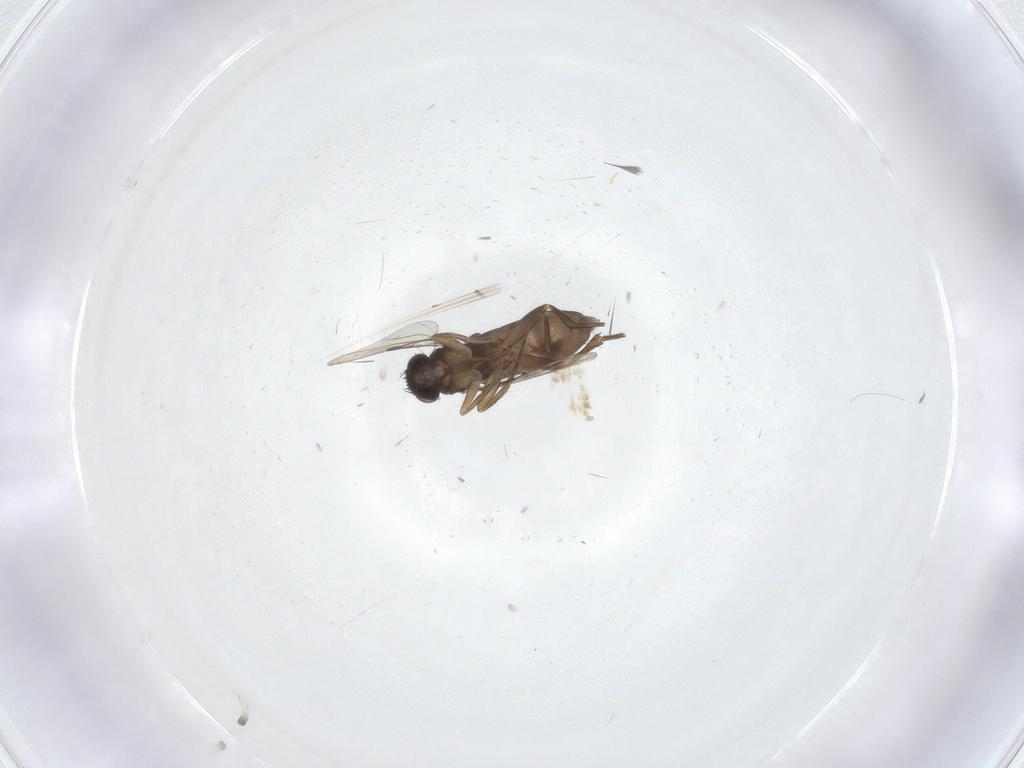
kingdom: Animalia
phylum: Arthropoda
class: Insecta
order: Diptera
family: Phoridae
